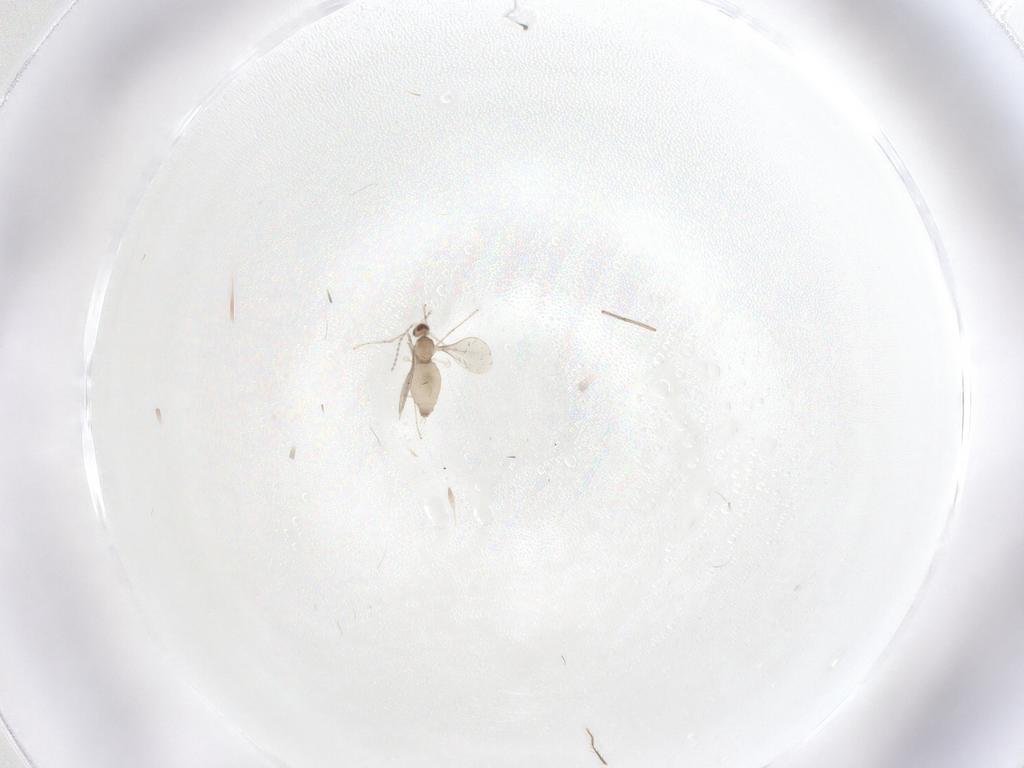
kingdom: Animalia
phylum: Arthropoda
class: Insecta
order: Diptera
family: Cecidomyiidae
